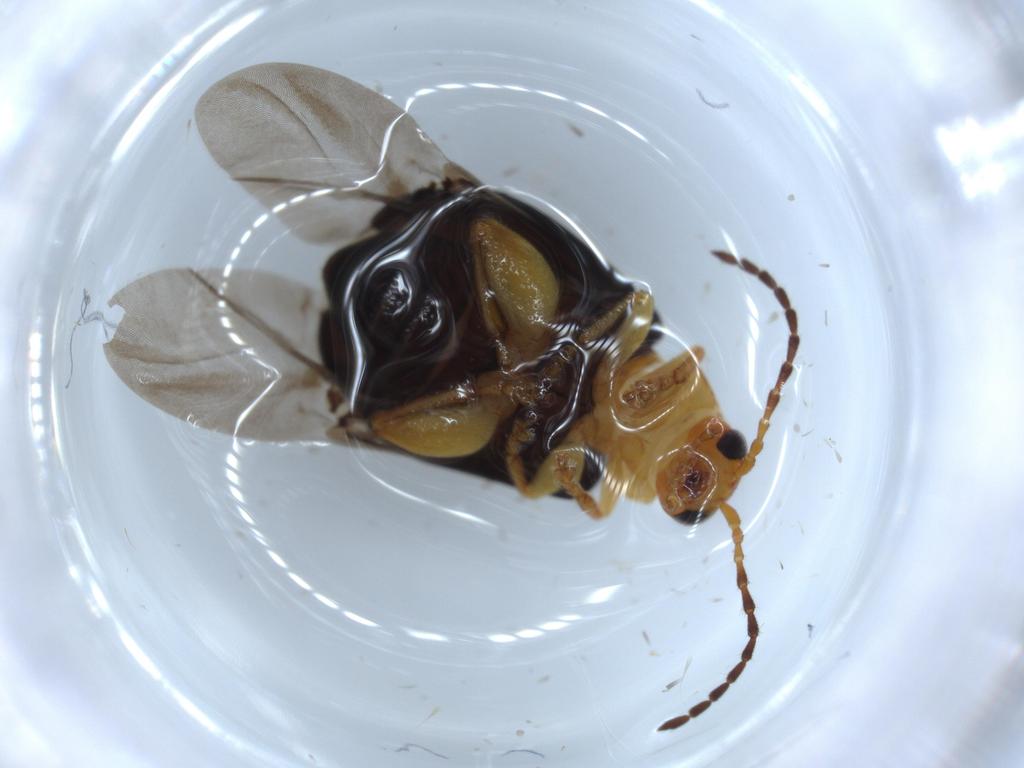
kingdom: Animalia
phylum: Arthropoda
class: Insecta
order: Coleoptera
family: Chrysomelidae
